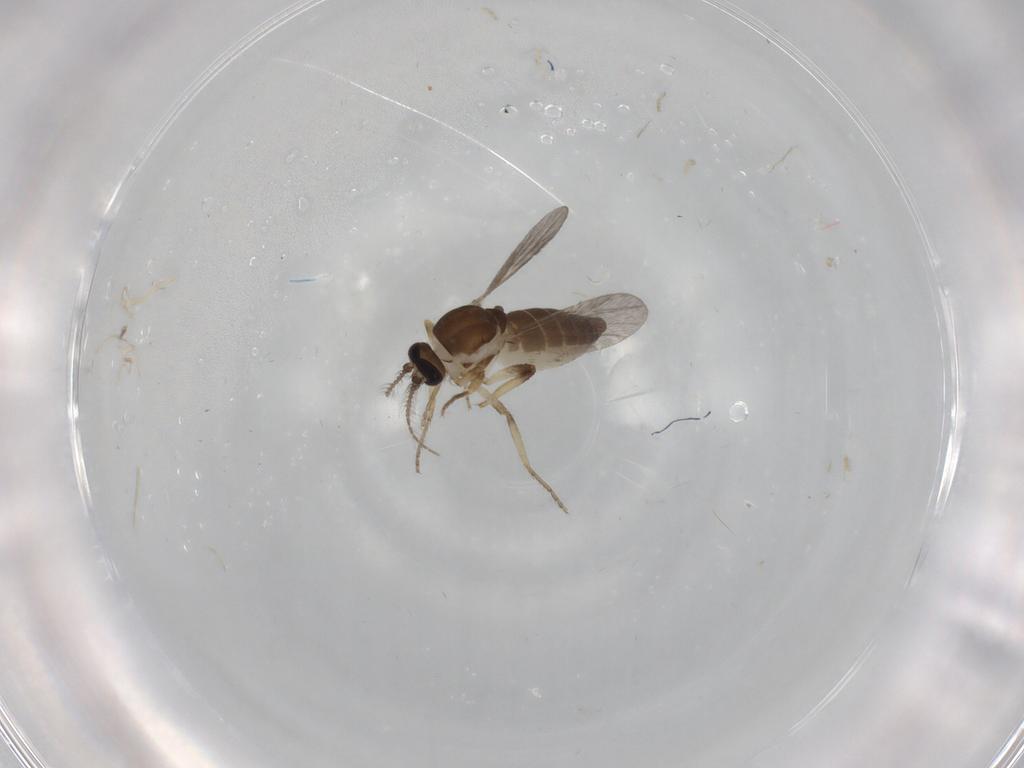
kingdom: Animalia
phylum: Arthropoda
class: Insecta
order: Diptera
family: Ceratopogonidae
